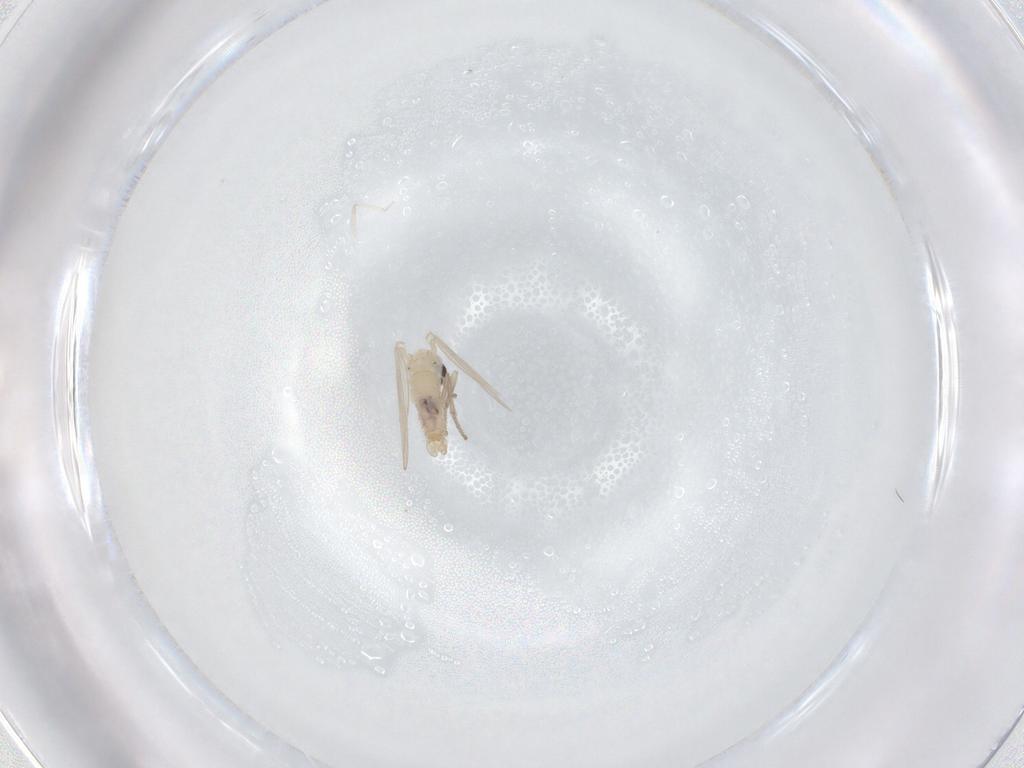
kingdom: Animalia
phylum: Arthropoda
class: Insecta
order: Diptera
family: Psychodidae
